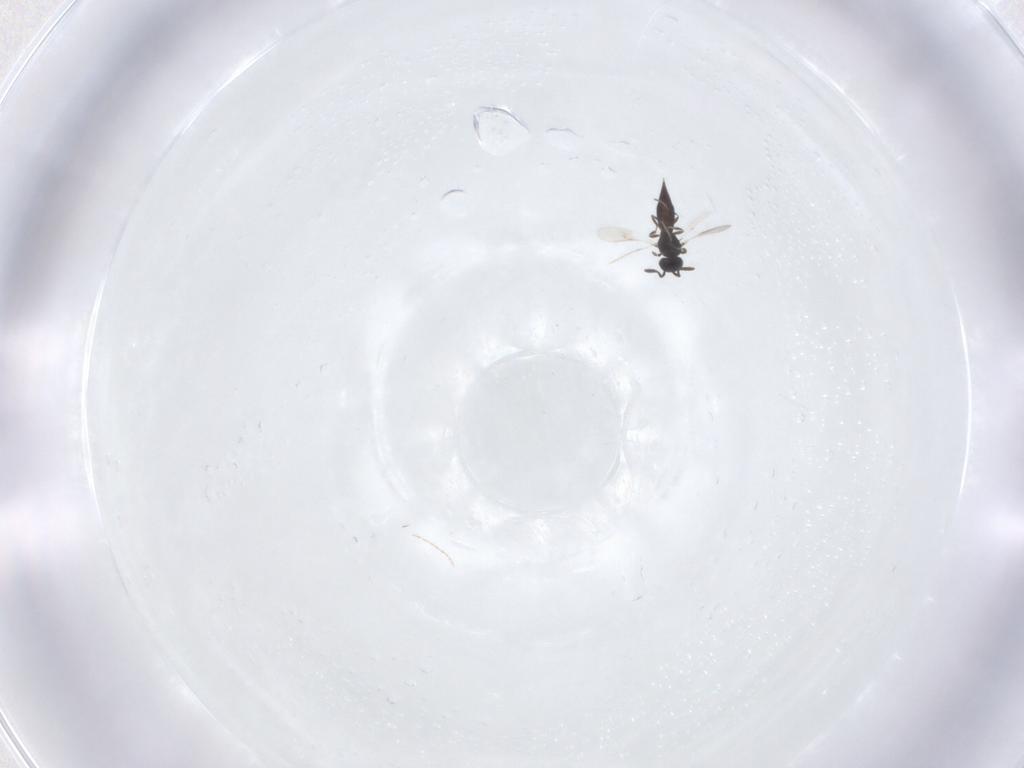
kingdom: Animalia
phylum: Arthropoda
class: Insecta
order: Hymenoptera
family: Scelionidae
